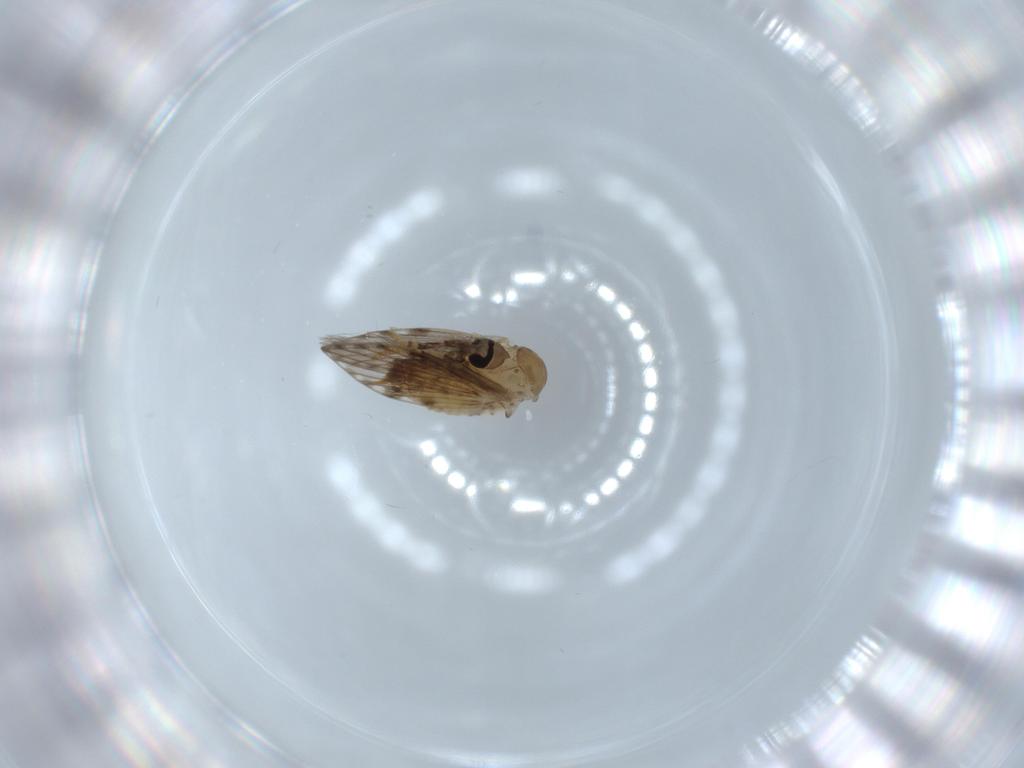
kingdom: Animalia
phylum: Arthropoda
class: Insecta
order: Diptera
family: Psychodidae
